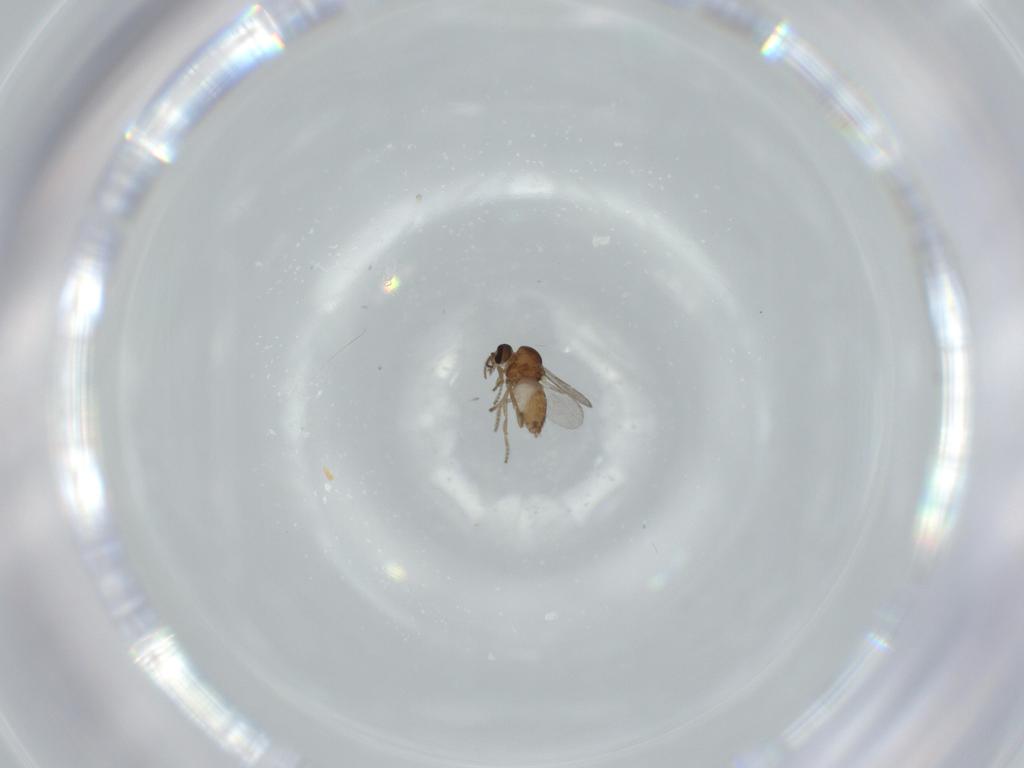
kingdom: Animalia
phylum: Arthropoda
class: Insecta
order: Diptera
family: Ceratopogonidae
